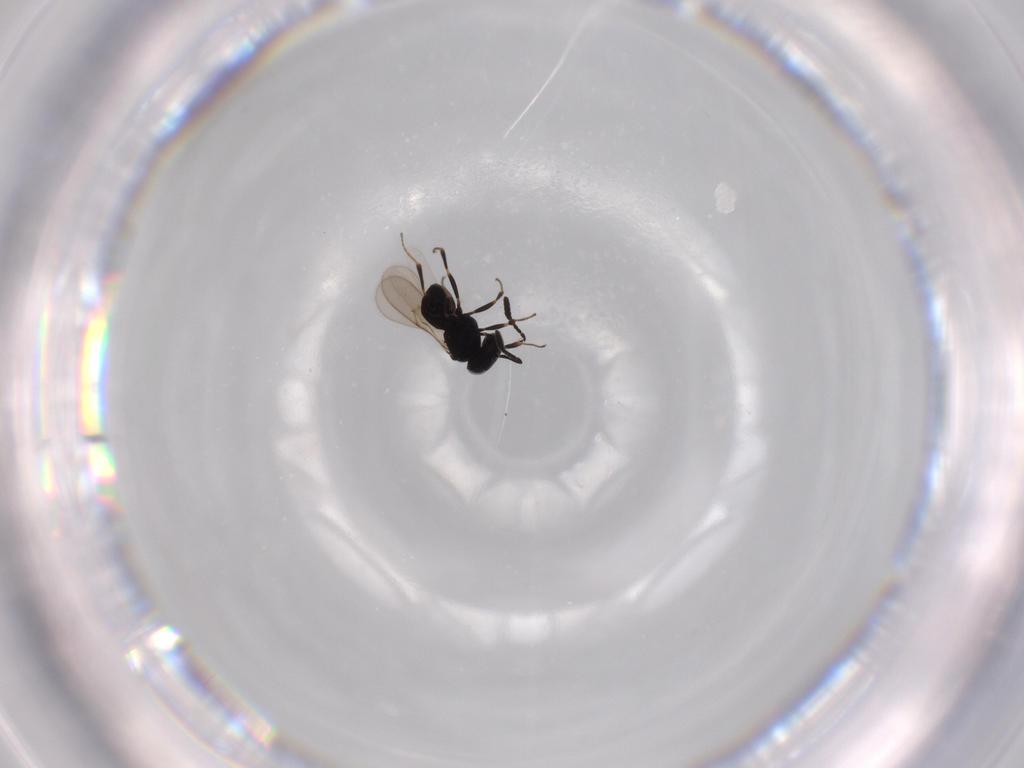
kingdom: Animalia
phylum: Arthropoda
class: Insecta
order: Hymenoptera
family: Scelionidae
